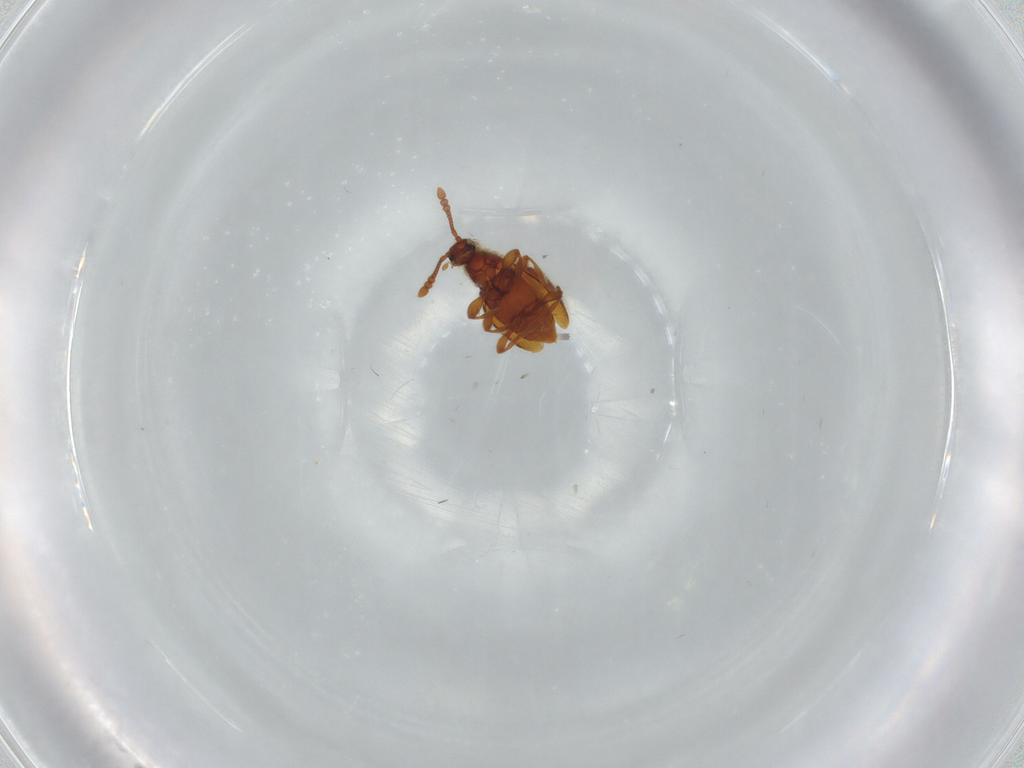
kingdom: Animalia
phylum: Arthropoda
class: Insecta
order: Coleoptera
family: Staphylinidae
